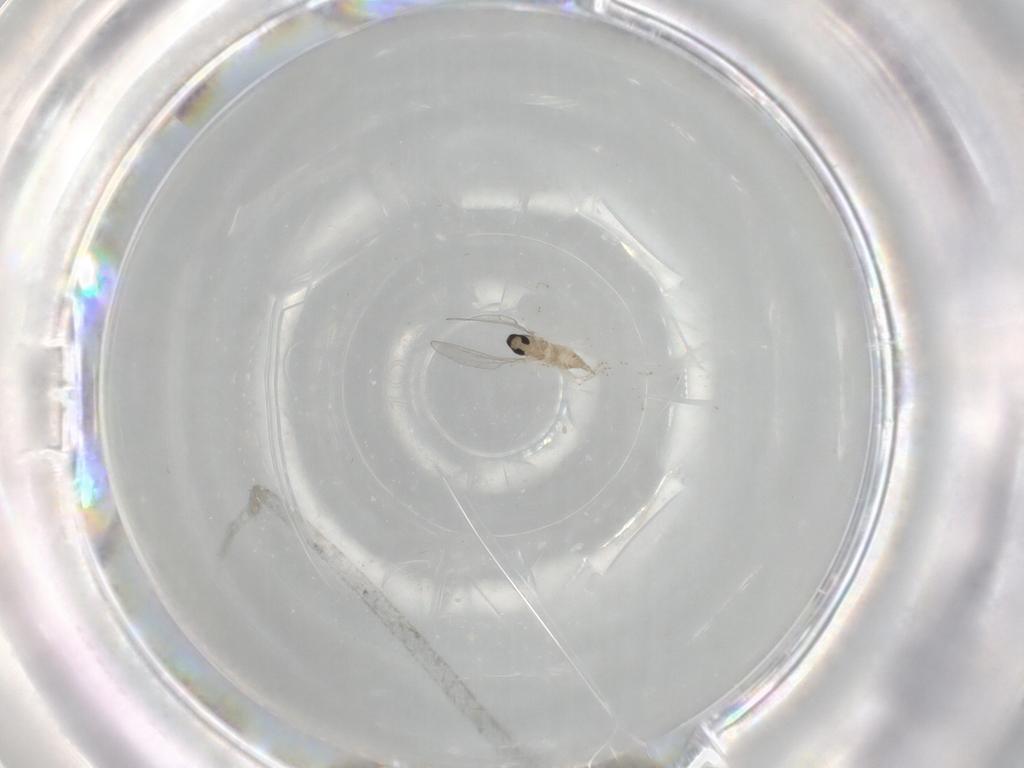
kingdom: Animalia
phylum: Arthropoda
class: Insecta
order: Diptera
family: Cecidomyiidae
